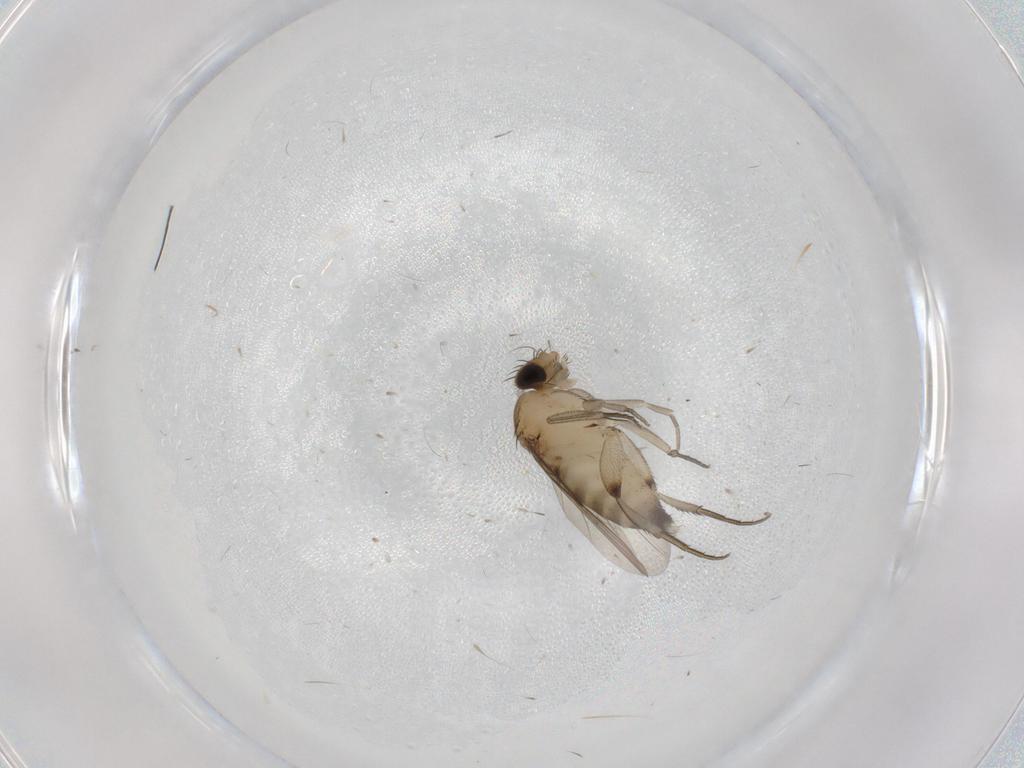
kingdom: Animalia
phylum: Arthropoda
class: Insecta
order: Diptera
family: Phoridae
